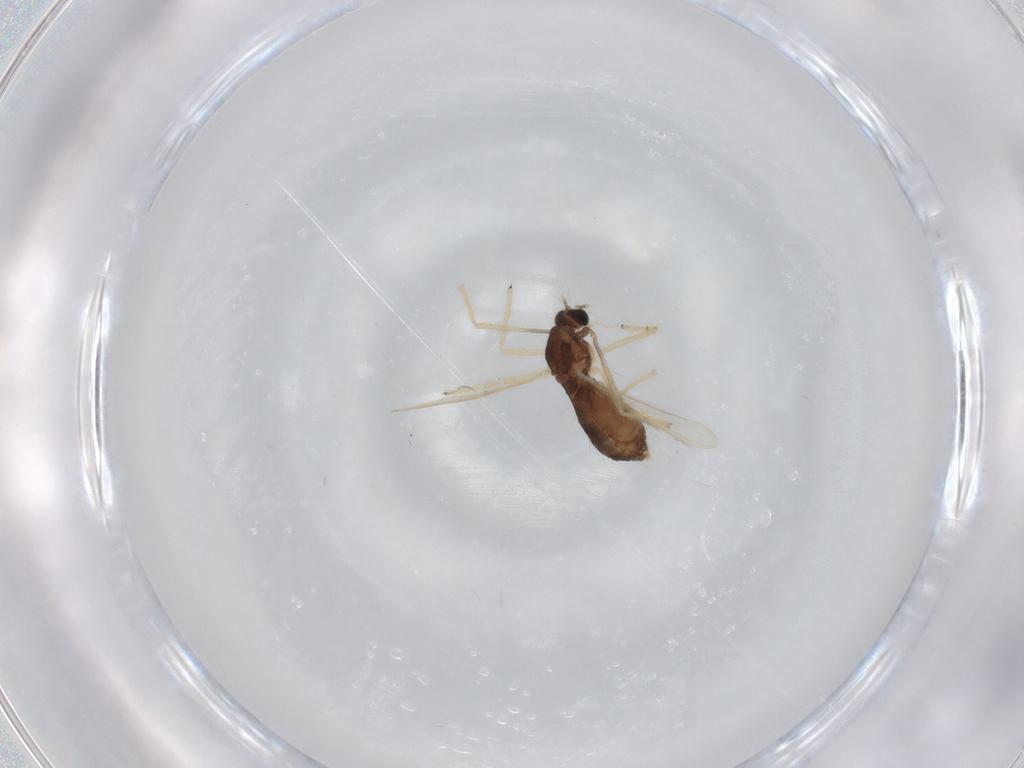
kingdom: Animalia
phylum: Arthropoda
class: Insecta
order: Diptera
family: Chironomidae
